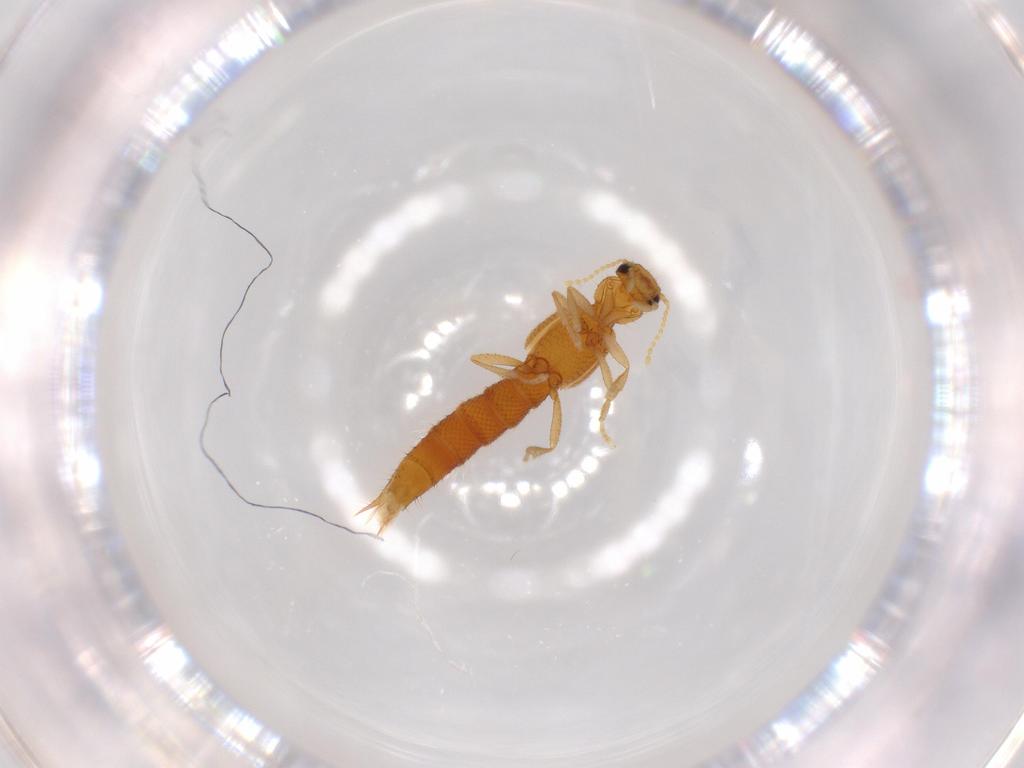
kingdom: Animalia
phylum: Arthropoda
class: Insecta
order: Coleoptera
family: Staphylinidae
